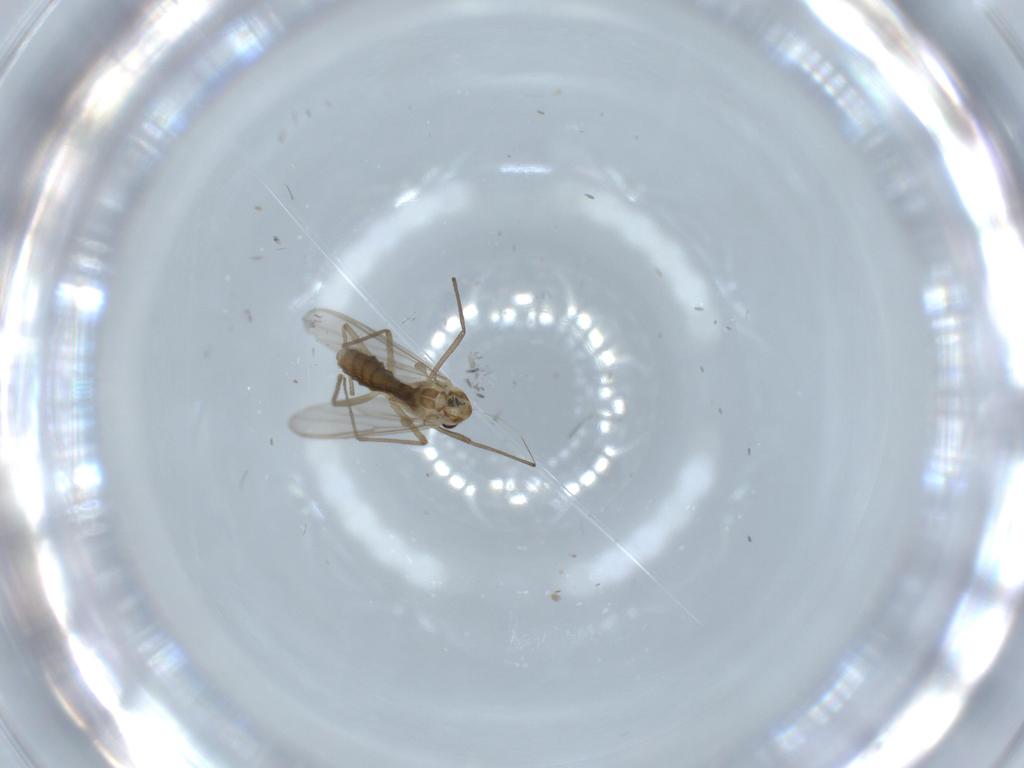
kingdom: Animalia
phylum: Arthropoda
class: Insecta
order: Diptera
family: Chironomidae
